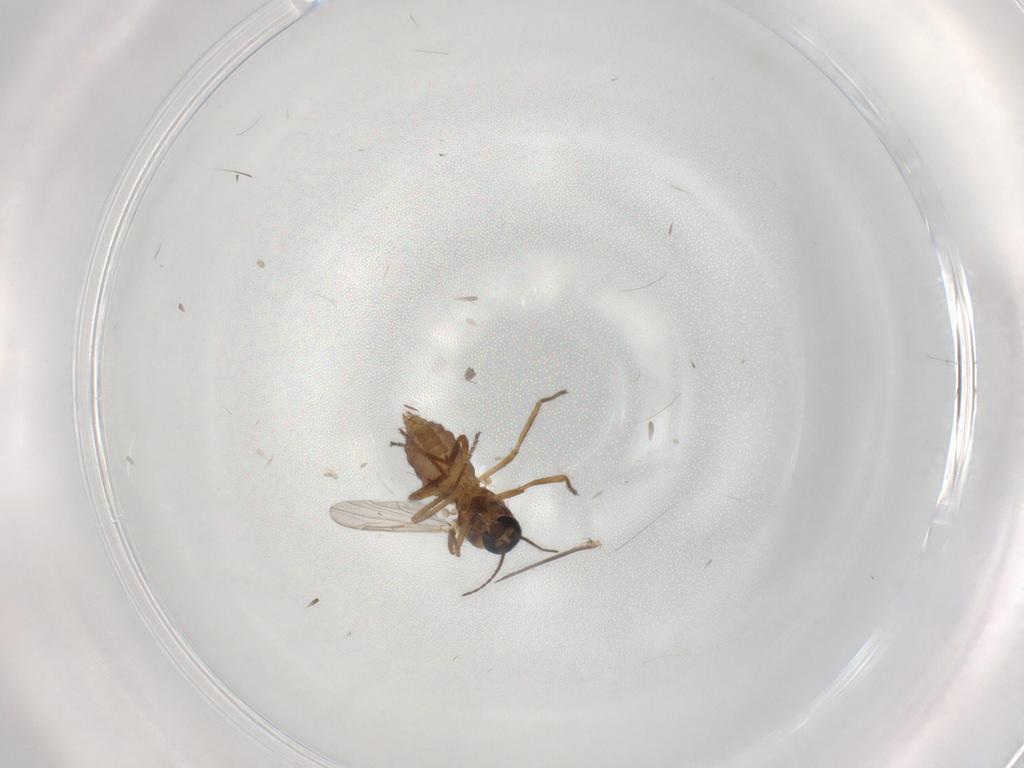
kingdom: Animalia
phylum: Arthropoda
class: Insecta
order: Diptera
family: Ceratopogonidae
